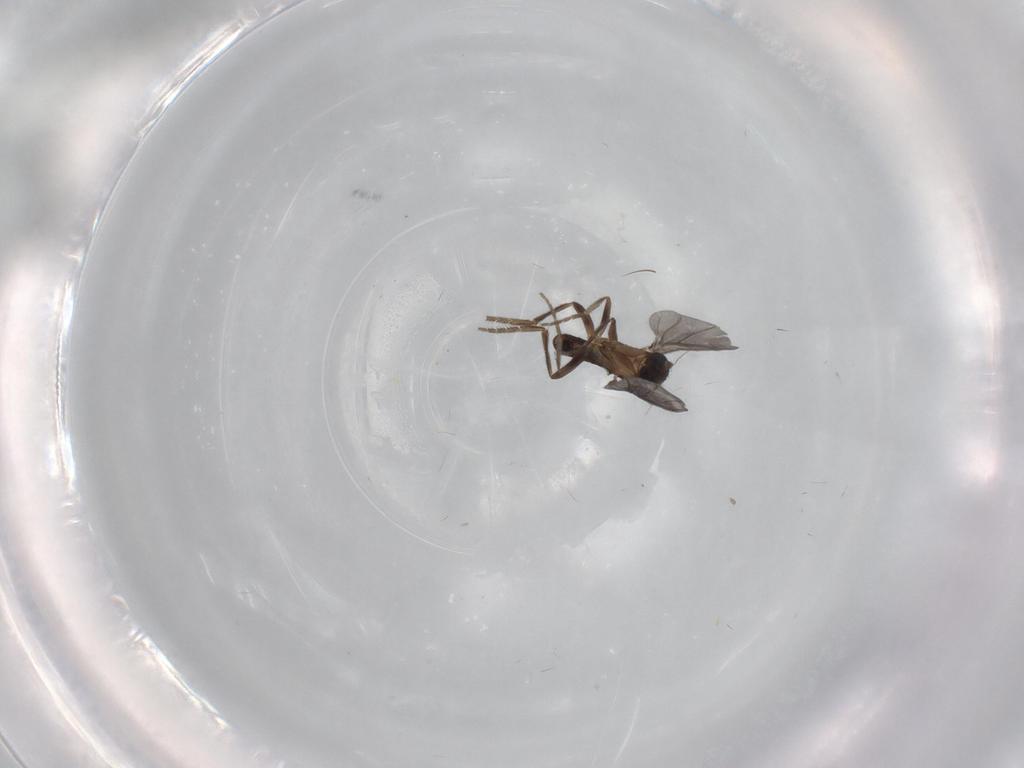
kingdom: Animalia
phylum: Arthropoda
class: Insecta
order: Diptera
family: Phoridae
